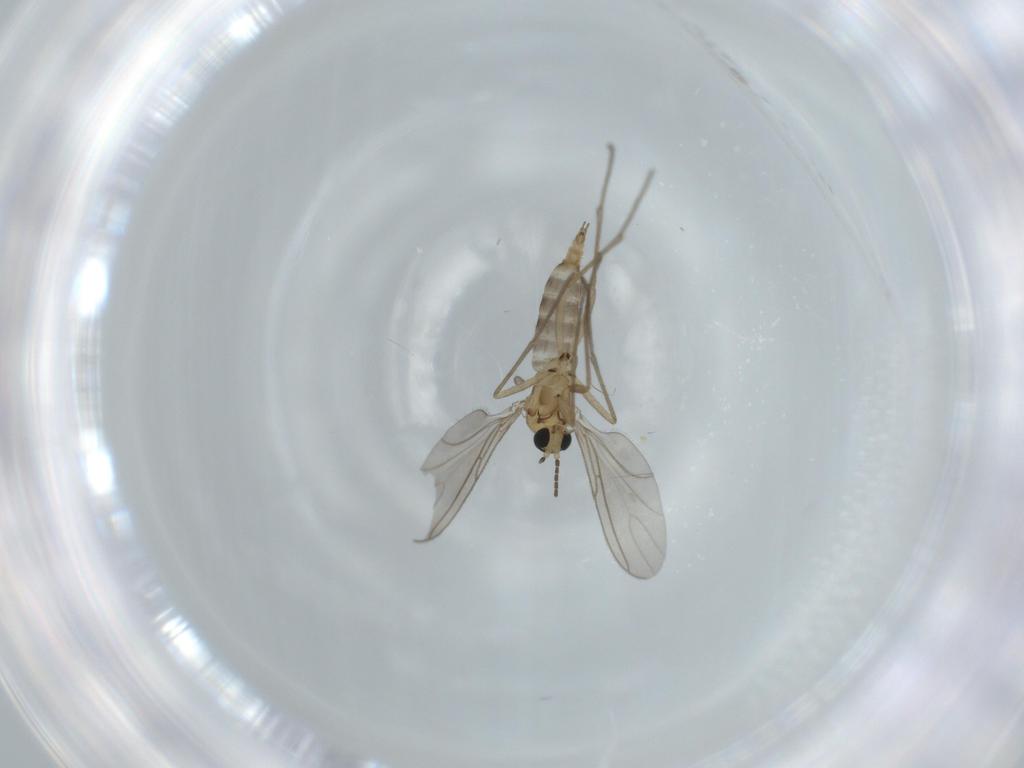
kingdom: Animalia
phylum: Arthropoda
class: Insecta
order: Diptera
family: Sciaridae
